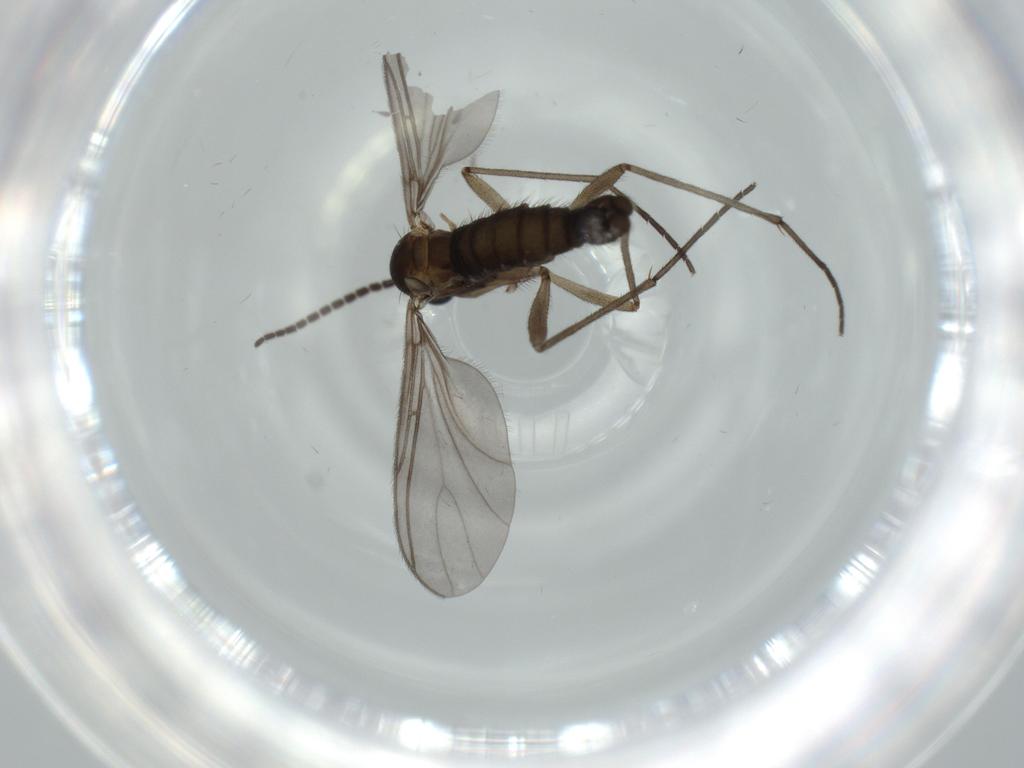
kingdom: Animalia
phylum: Arthropoda
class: Insecta
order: Diptera
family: Sciaridae
